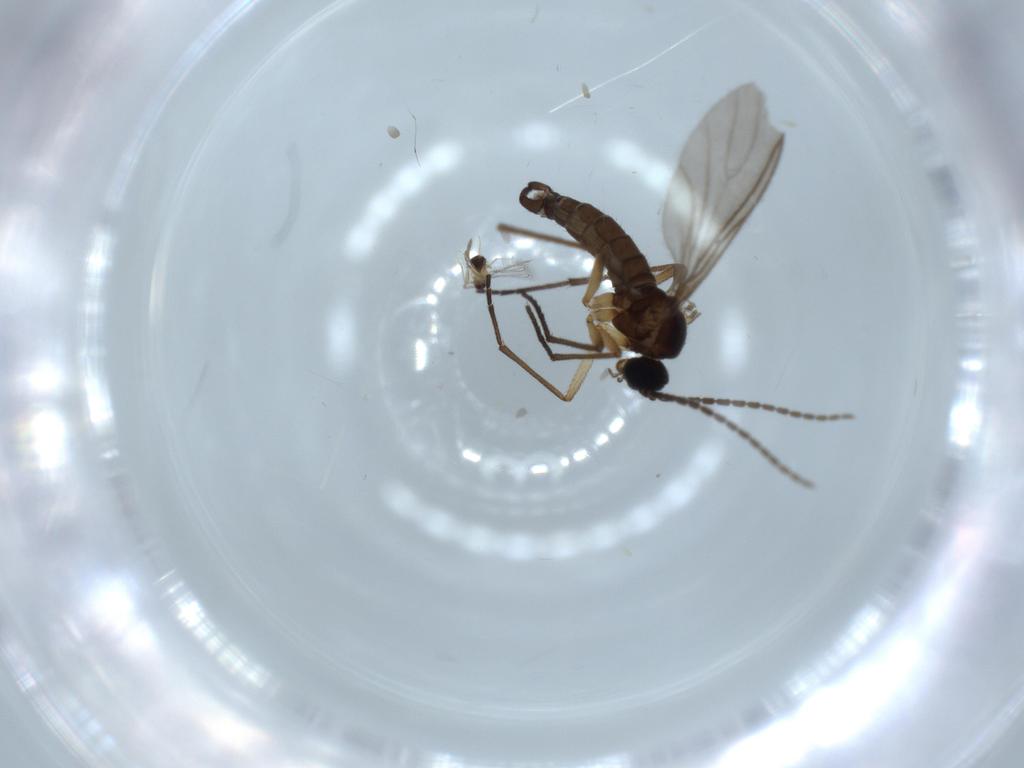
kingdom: Animalia
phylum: Arthropoda
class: Insecta
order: Diptera
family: Sciaridae
